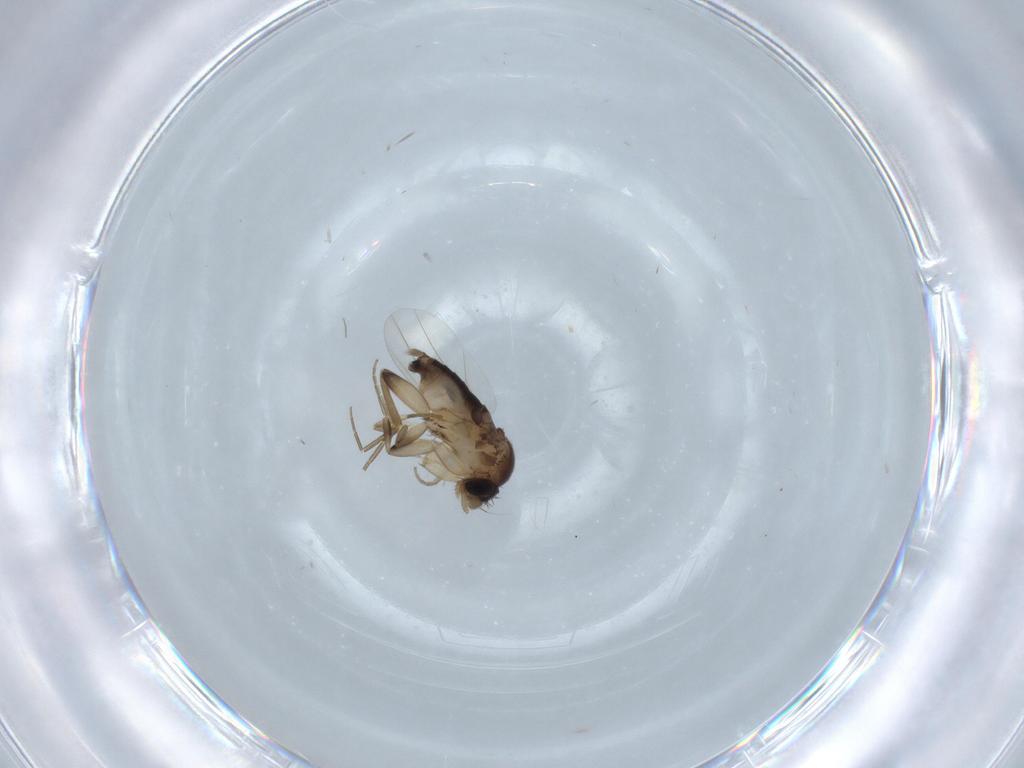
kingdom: Animalia
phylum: Arthropoda
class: Insecta
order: Diptera
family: Phoridae
